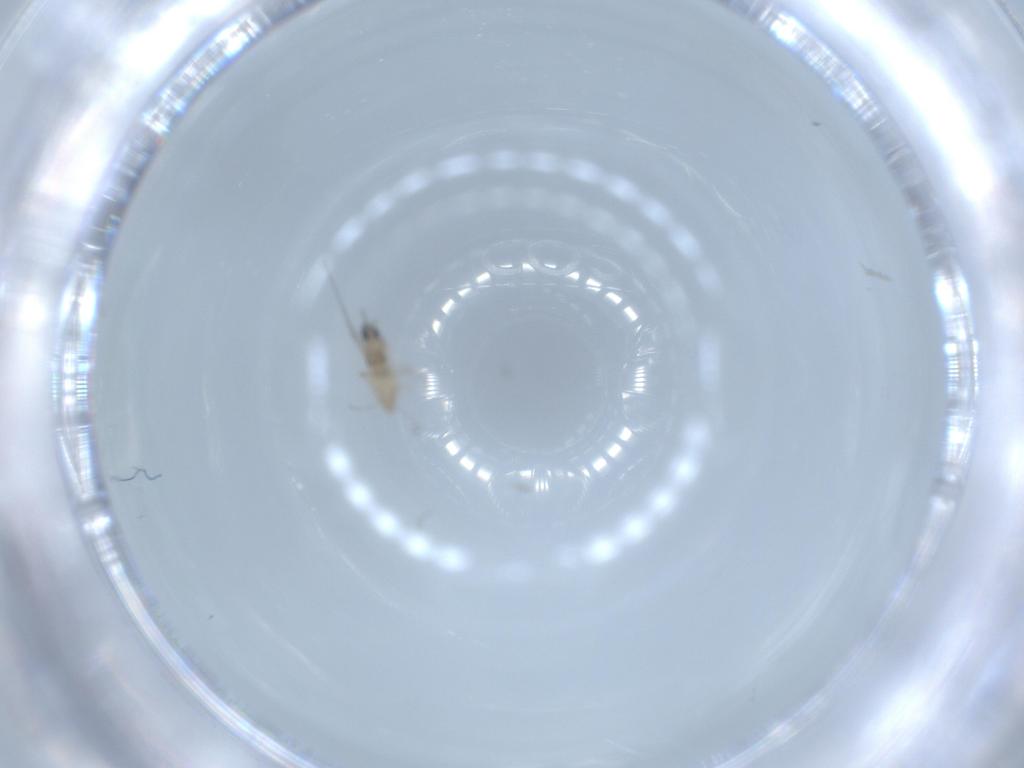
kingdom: Animalia
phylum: Arthropoda
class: Insecta
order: Diptera
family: Cecidomyiidae
